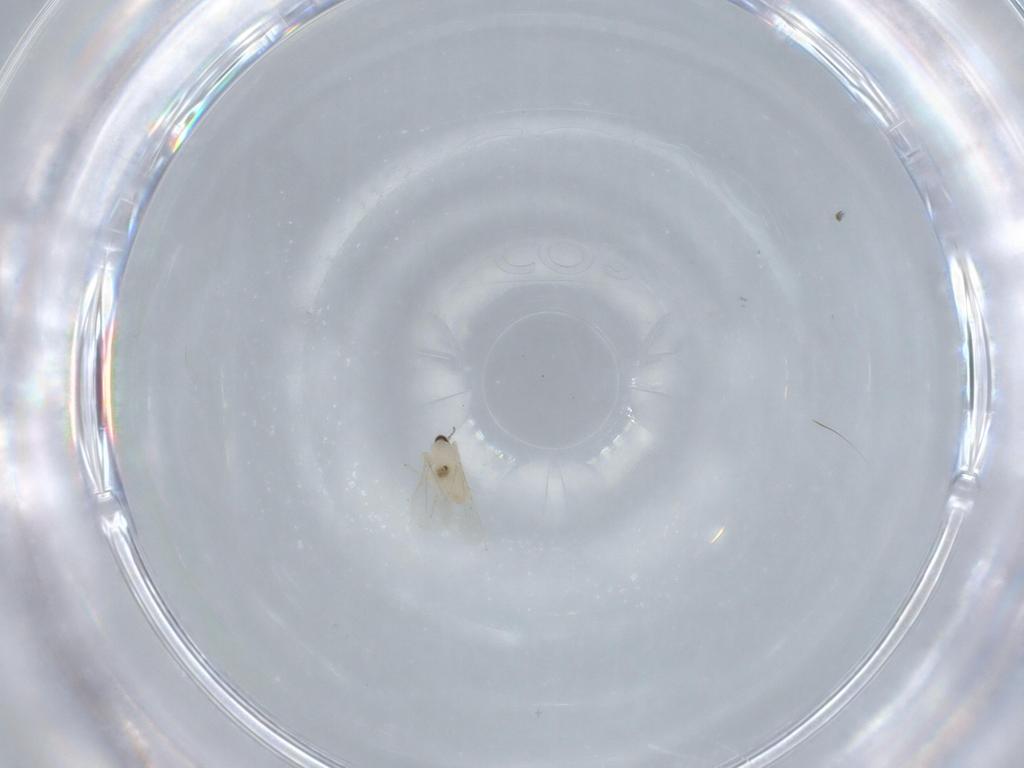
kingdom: Animalia
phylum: Arthropoda
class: Insecta
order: Diptera
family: Cecidomyiidae
